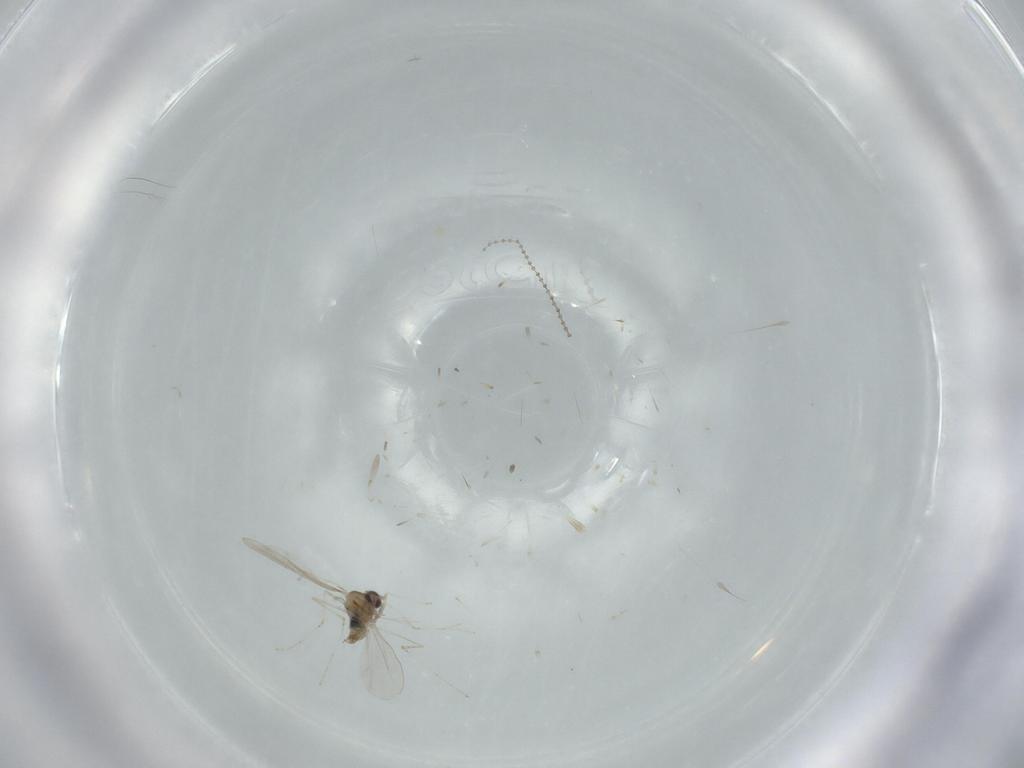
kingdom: Animalia
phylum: Arthropoda
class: Insecta
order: Diptera
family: Cecidomyiidae
